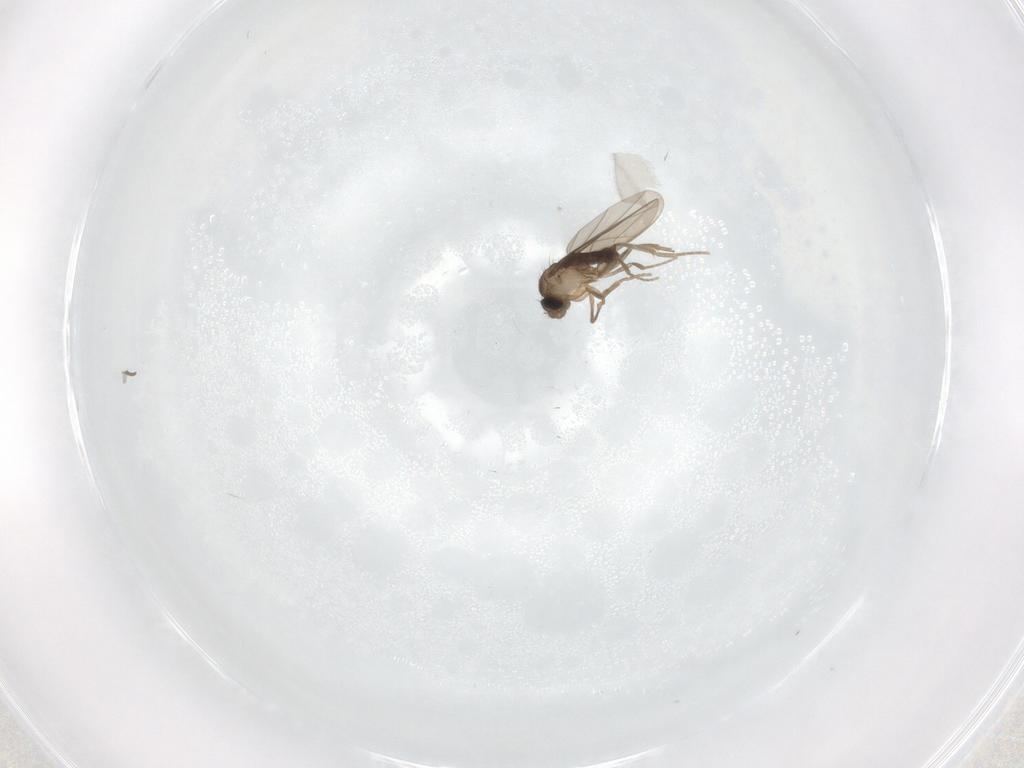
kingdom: Animalia
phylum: Arthropoda
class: Insecta
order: Diptera
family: Phoridae
